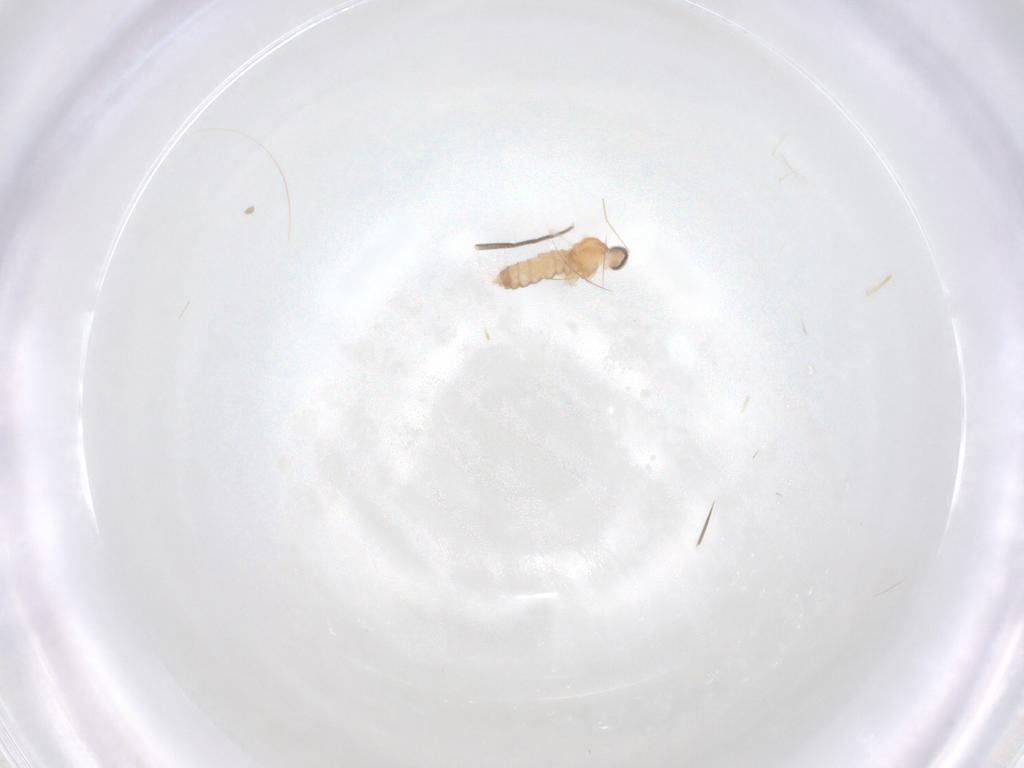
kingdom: Animalia
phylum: Arthropoda
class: Insecta
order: Diptera
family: Cecidomyiidae
